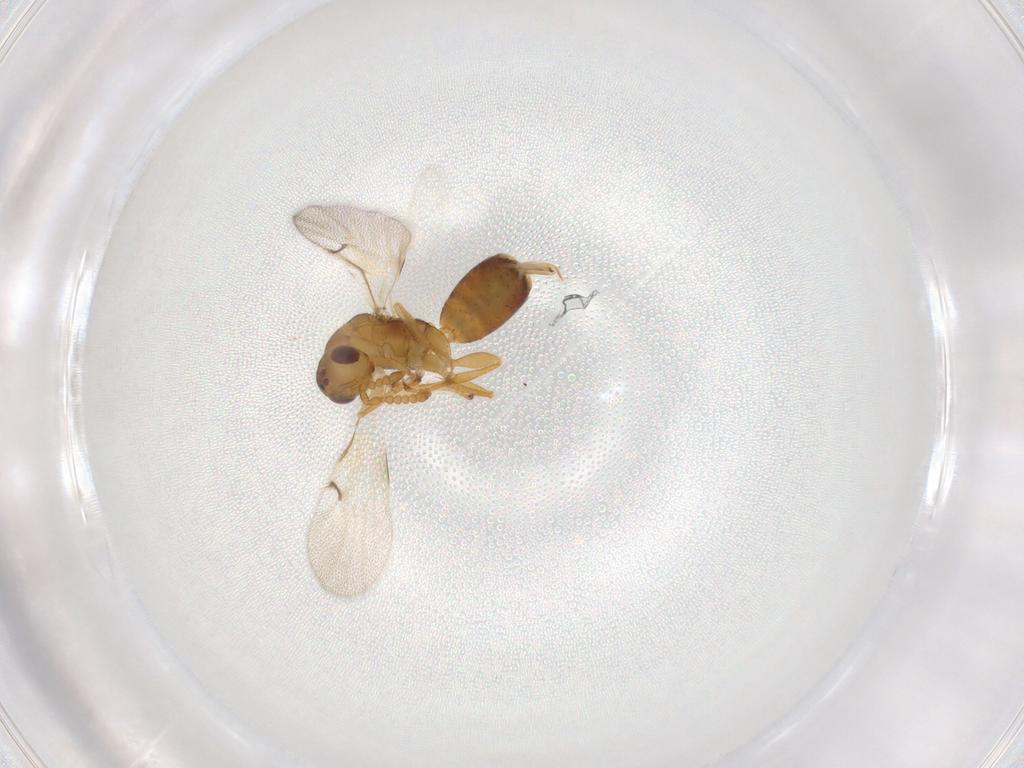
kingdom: Animalia
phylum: Arthropoda
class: Insecta
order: Hymenoptera
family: Epichrysomallidae
